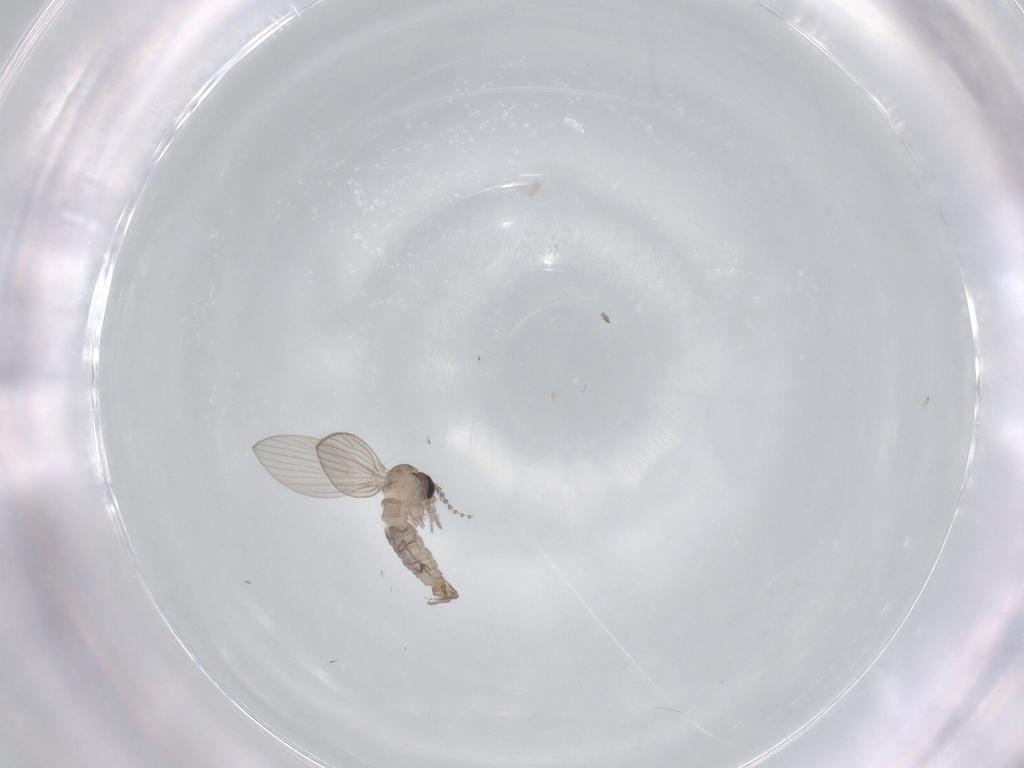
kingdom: Animalia
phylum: Arthropoda
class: Insecta
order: Diptera
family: Psychodidae
